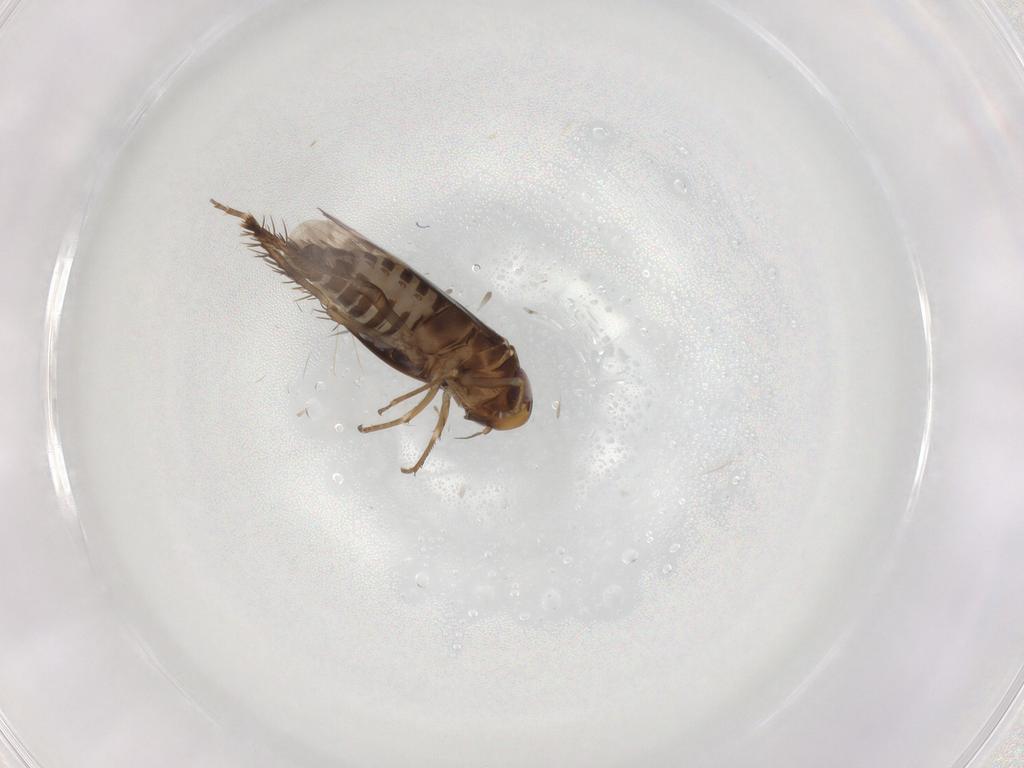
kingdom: Animalia
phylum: Arthropoda
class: Insecta
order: Hemiptera
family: Cicadellidae
